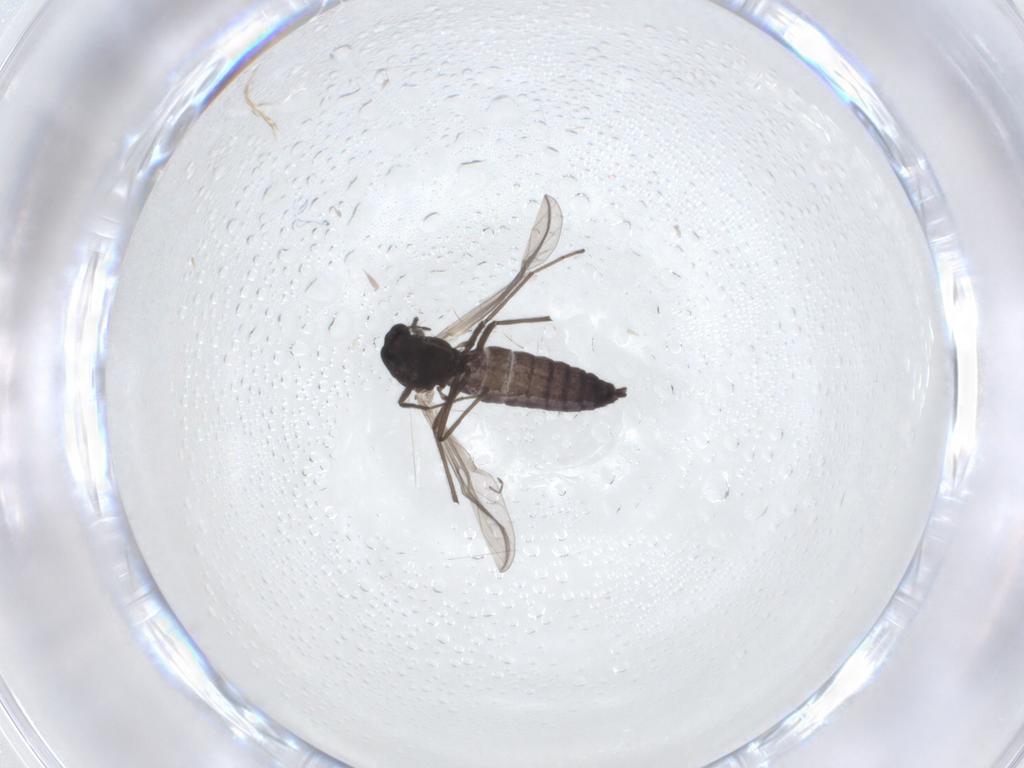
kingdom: Animalia
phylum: Arthropoda
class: Insecta
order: Diptera
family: Chironomidae
